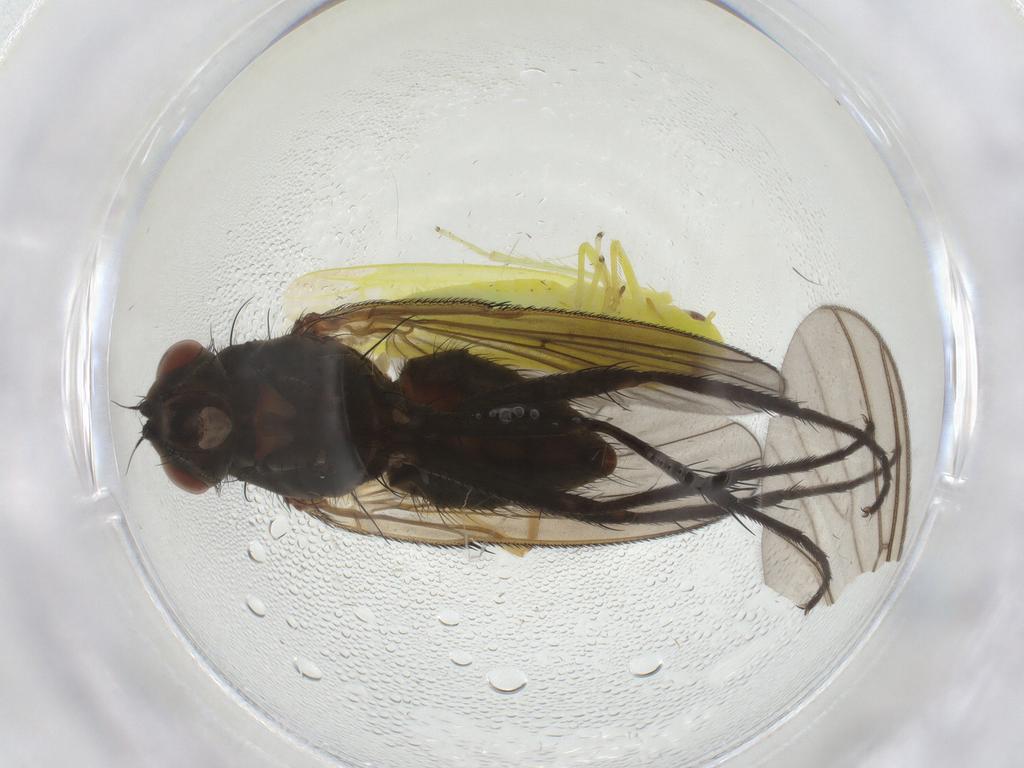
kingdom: Animalia
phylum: Arthropoda
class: Insecta
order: Diptera
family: Anthomyiidae
